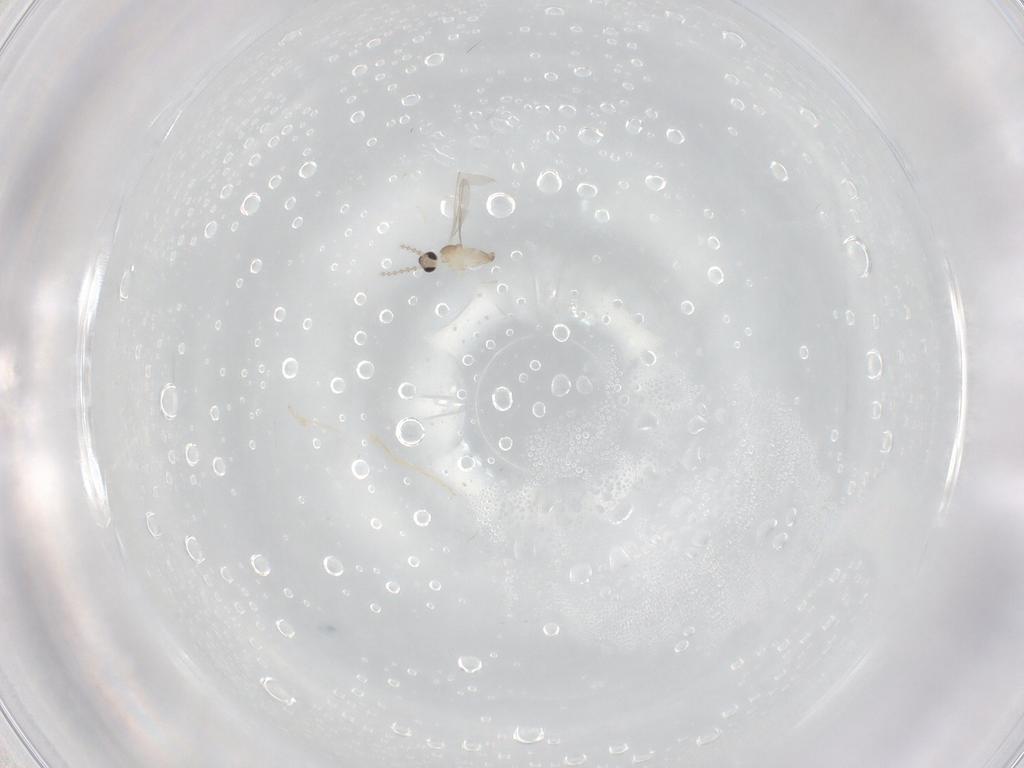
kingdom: Animalia
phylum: Arthropoda
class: Insecta
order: Diptera
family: Cecidomyiidae
